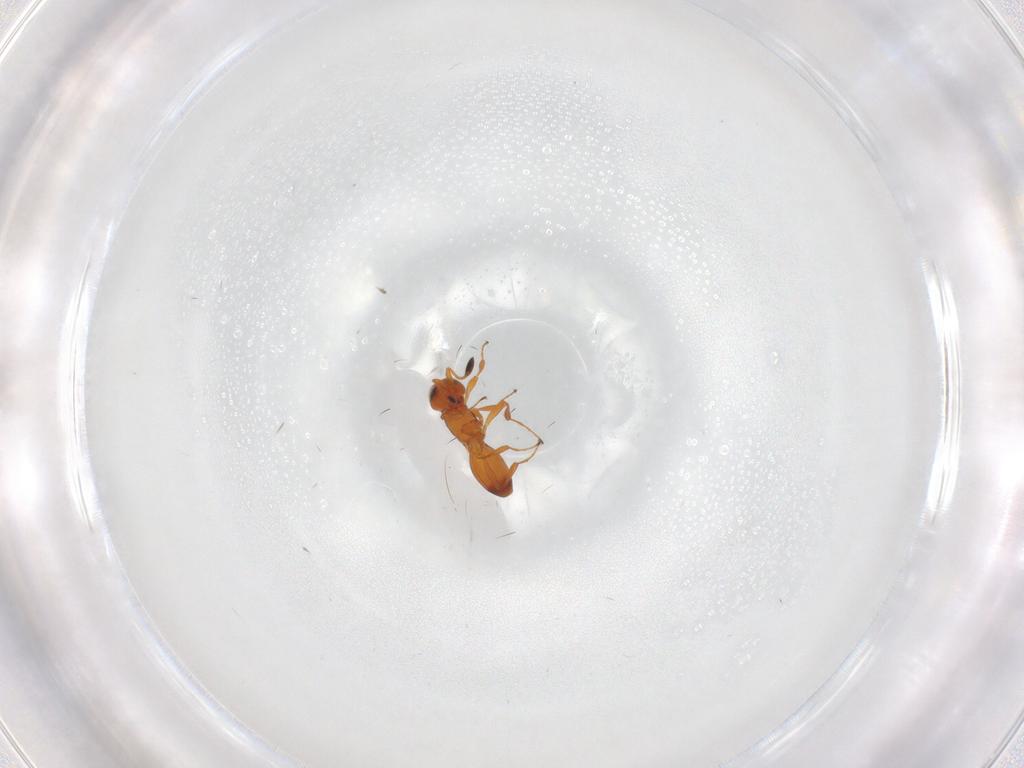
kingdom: Animalia
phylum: Arthropoda
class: Insecta
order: Hymenoptera
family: Platygastridae
